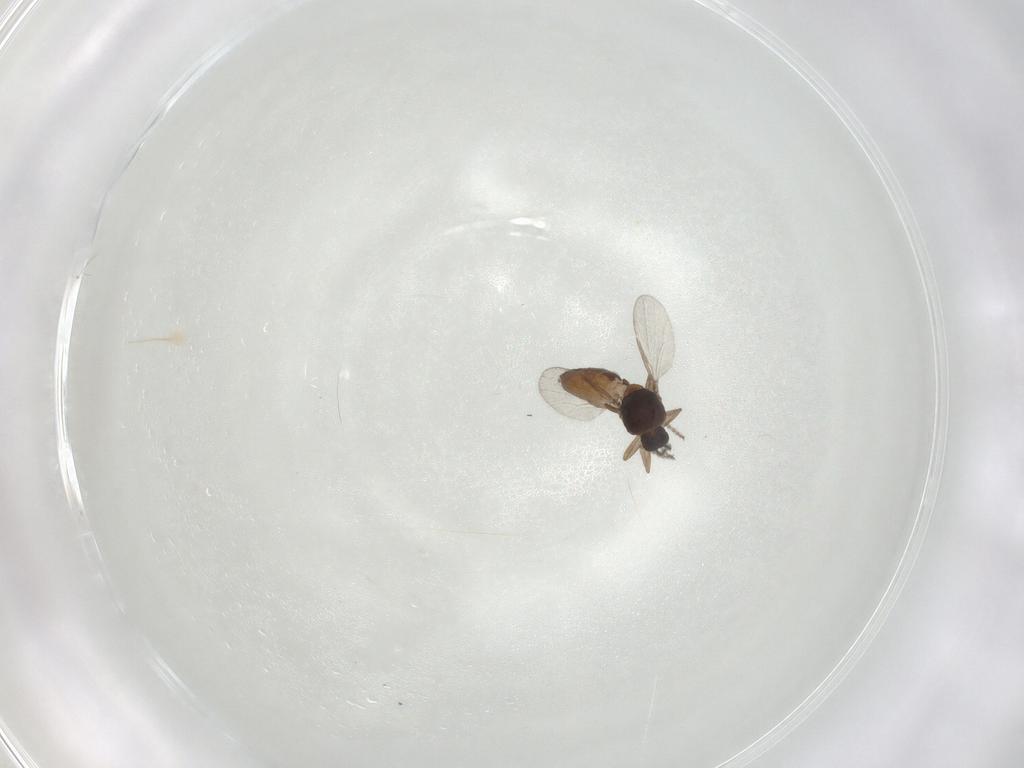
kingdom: Animalia
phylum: Arthropoda
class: Insecta
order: Diptera
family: Ceratopogonidae
